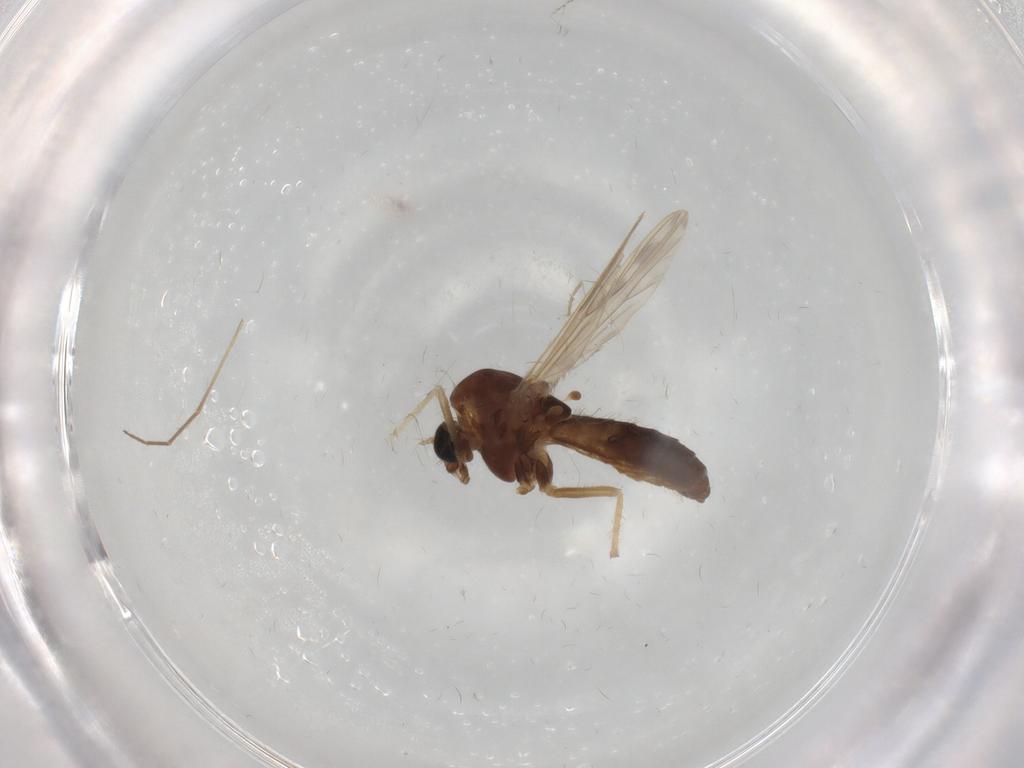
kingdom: Animalia
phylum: Arthropoda
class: Insecta
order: Diptera
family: Chironomidae
